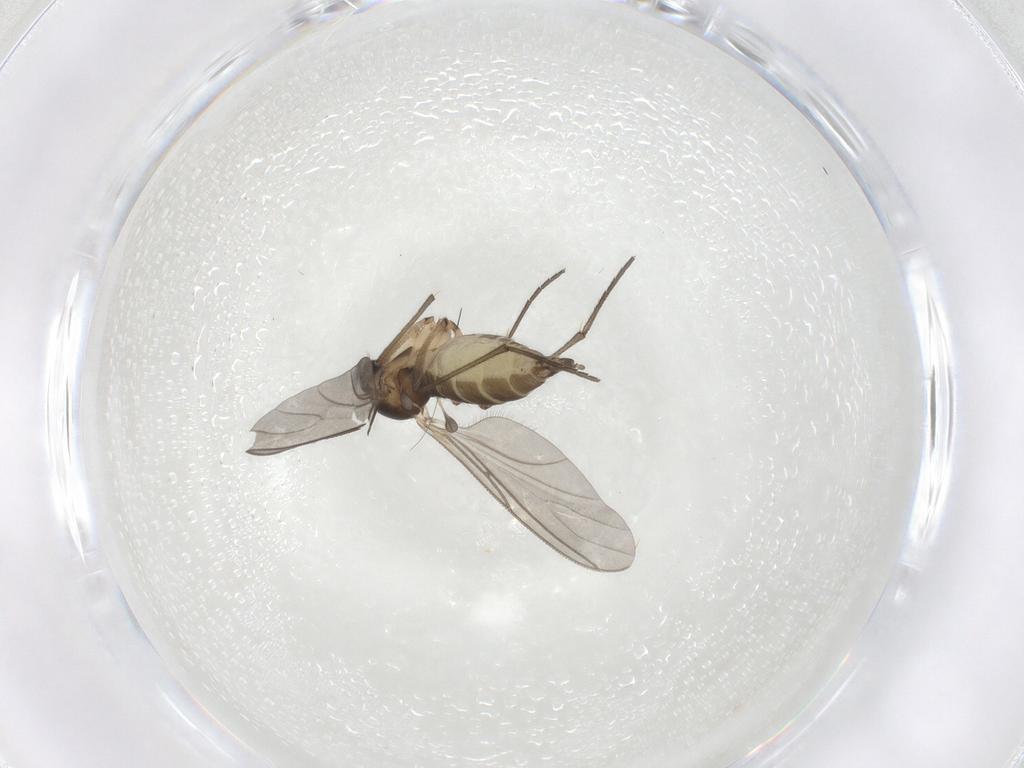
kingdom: Animalia
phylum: Arthropoda
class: Insecta
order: Diptera
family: Sciaridae
